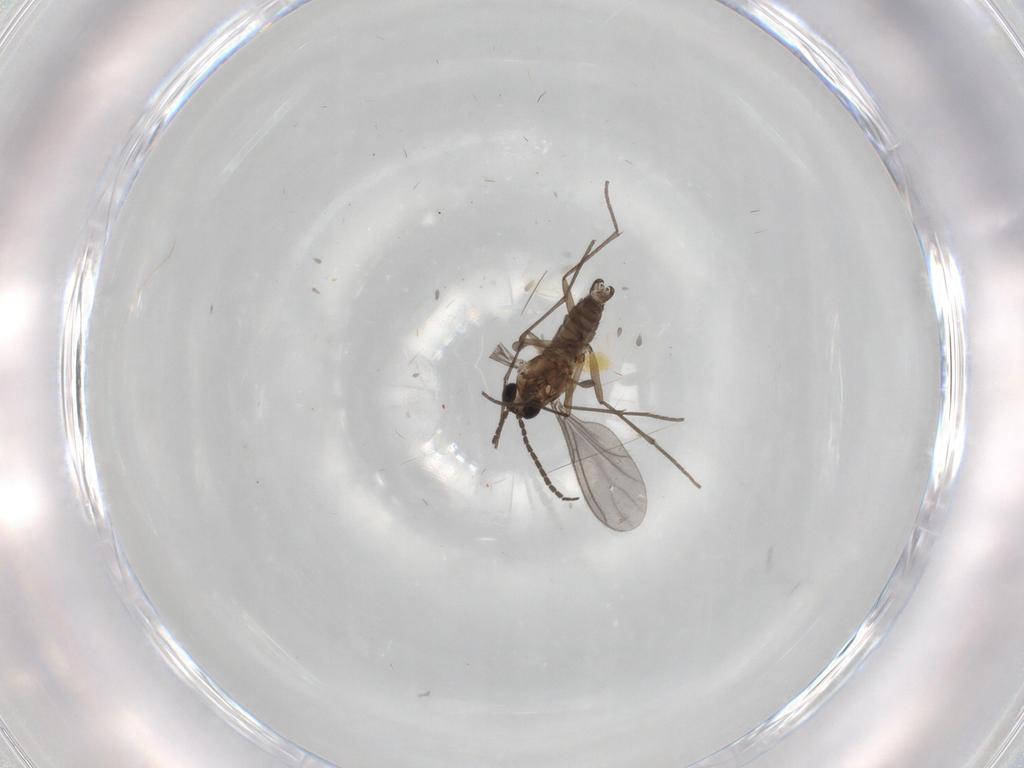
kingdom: Animalia
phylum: Arthropoda
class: Insecta
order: Diptera
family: Sciaridae
